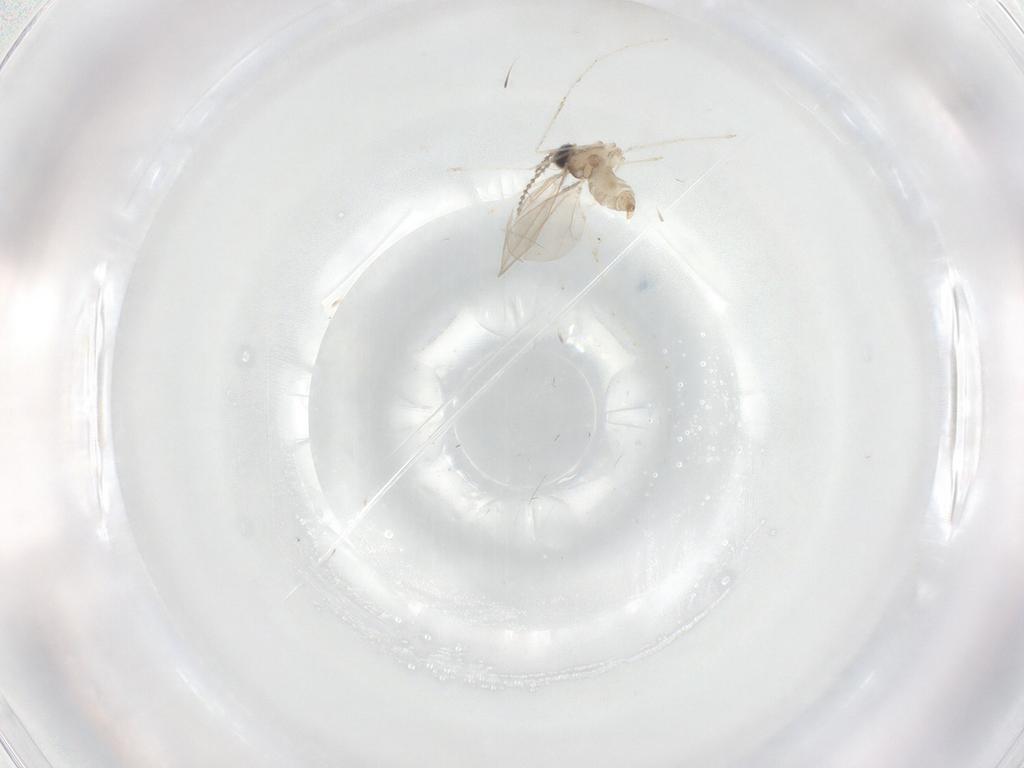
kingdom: Animalia
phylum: Arthropoda
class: Insecta
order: Diptera
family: Cecidomyiidae
